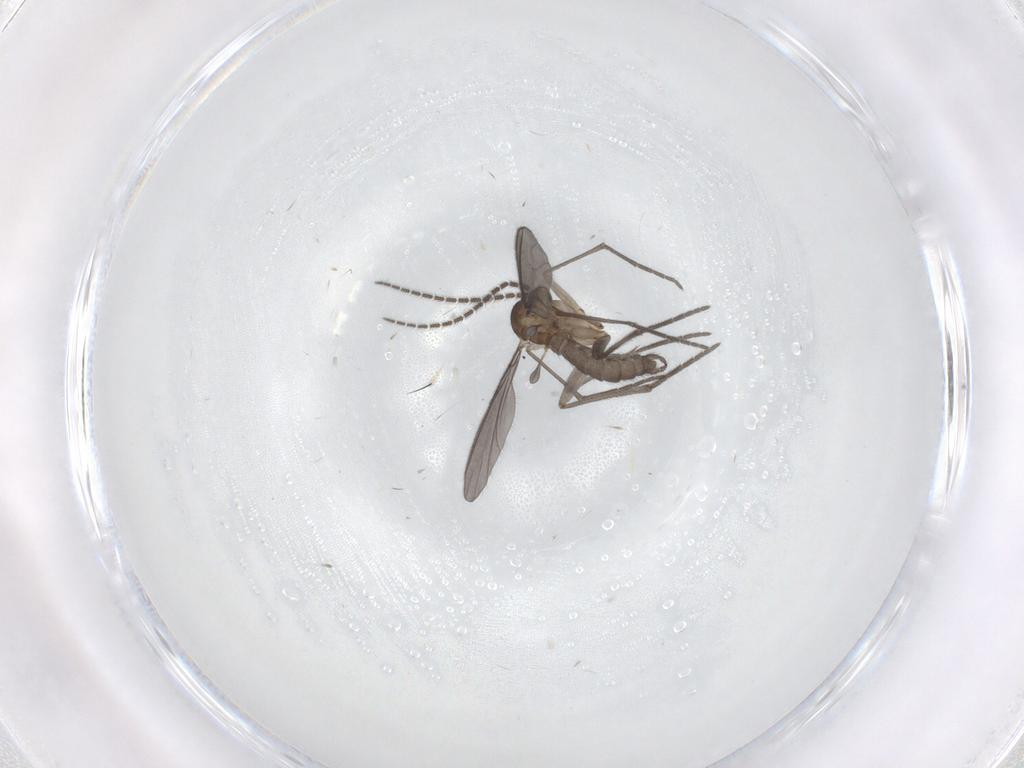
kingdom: Animalia
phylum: Arthropoda
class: Insecta
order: Diptera
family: Sciaridae
